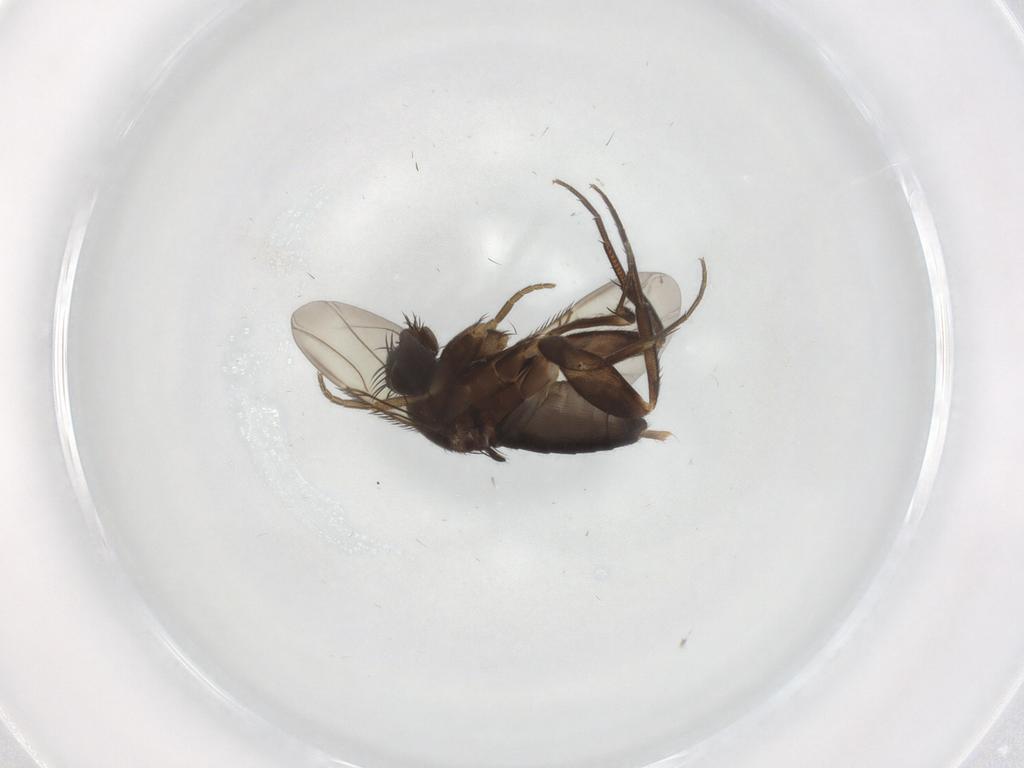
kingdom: Animalia
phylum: Arthropoda
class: Insecta
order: Diptera
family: Phoridae
